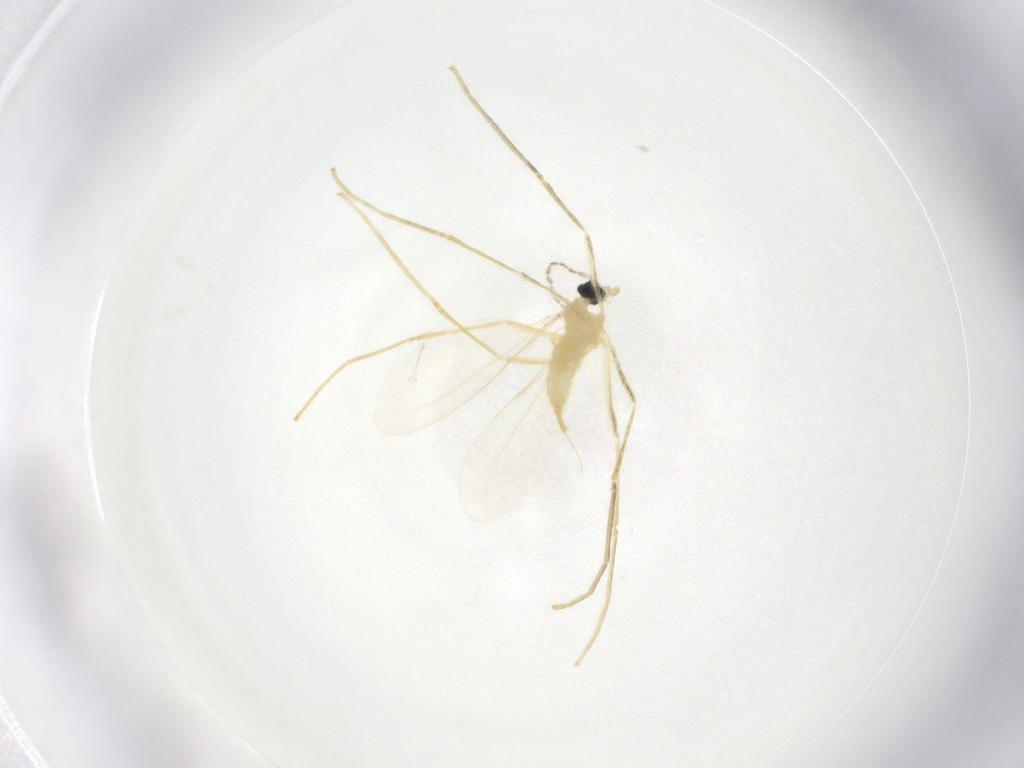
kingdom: Animalia
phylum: Arthropoda
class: Insecta
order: Diptera
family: Cecidomyiidae
